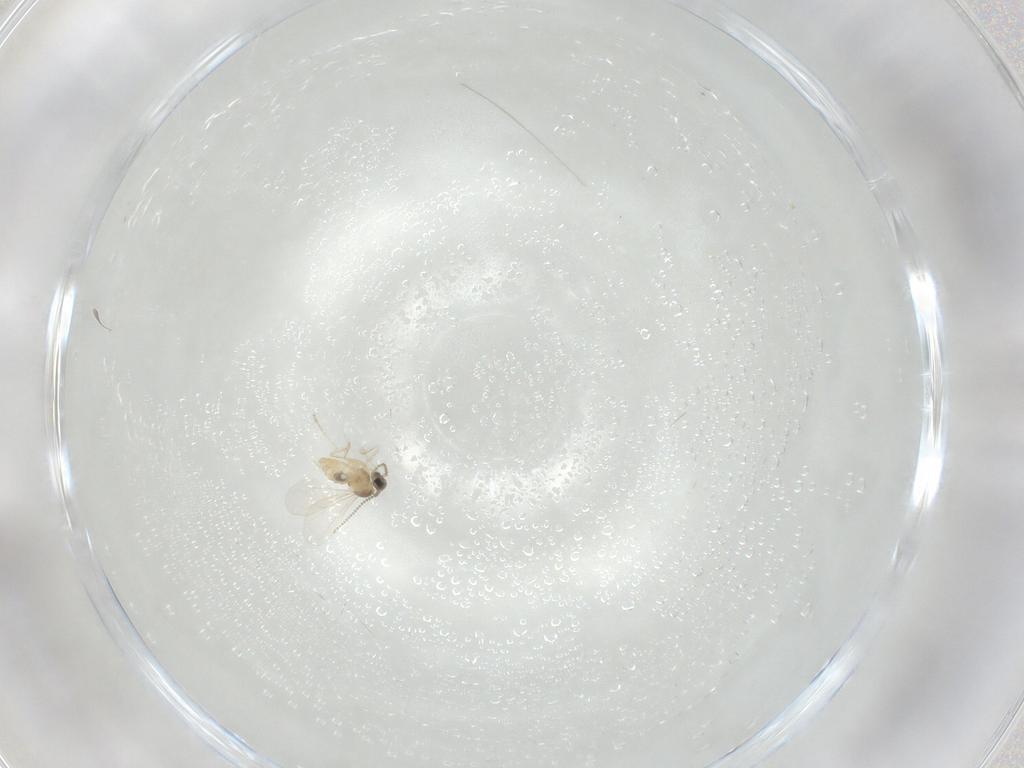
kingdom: Animalia
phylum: Arthropoda
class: Insecta
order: Diptera
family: Cecidomyiidae
